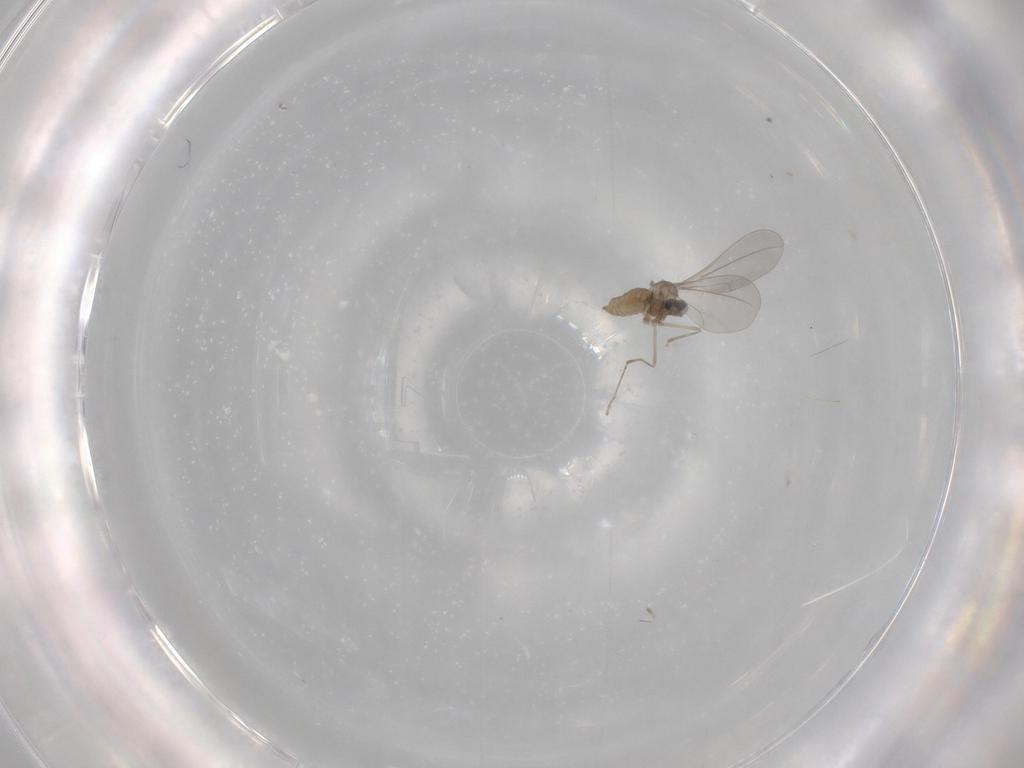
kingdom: Animalia
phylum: Arthropoda
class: Insecta
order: Diptera
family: Cecidomyiidae
